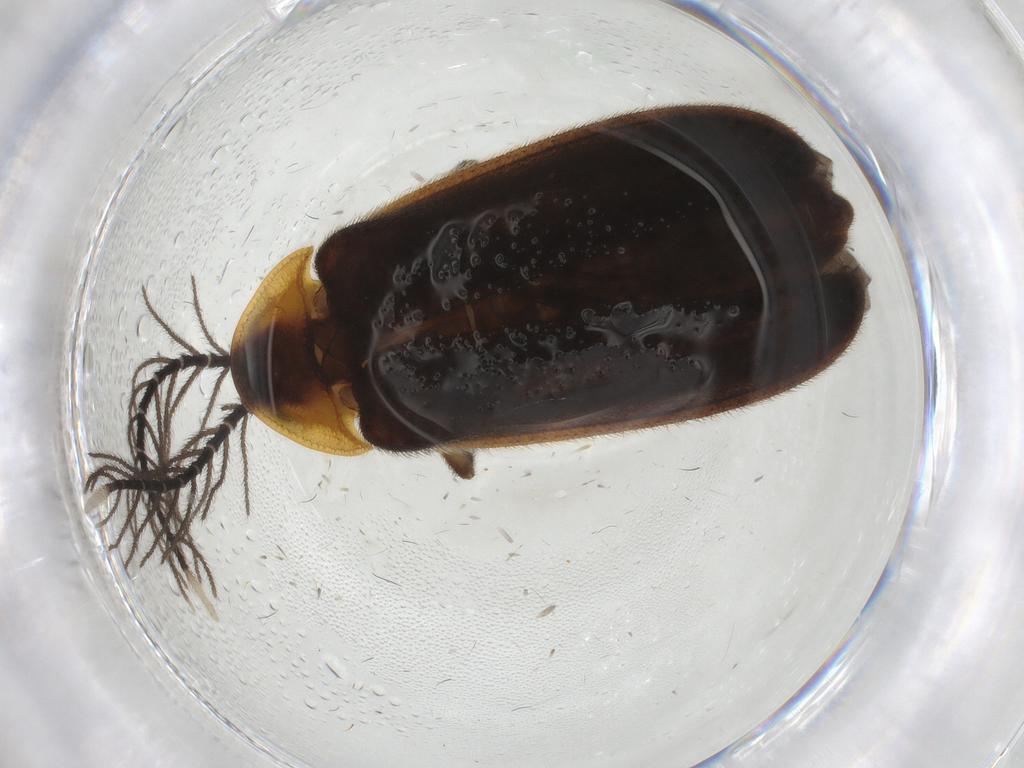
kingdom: Animalia
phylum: Arthropoda
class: Insecta
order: Coleoptera
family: Lampyridae
